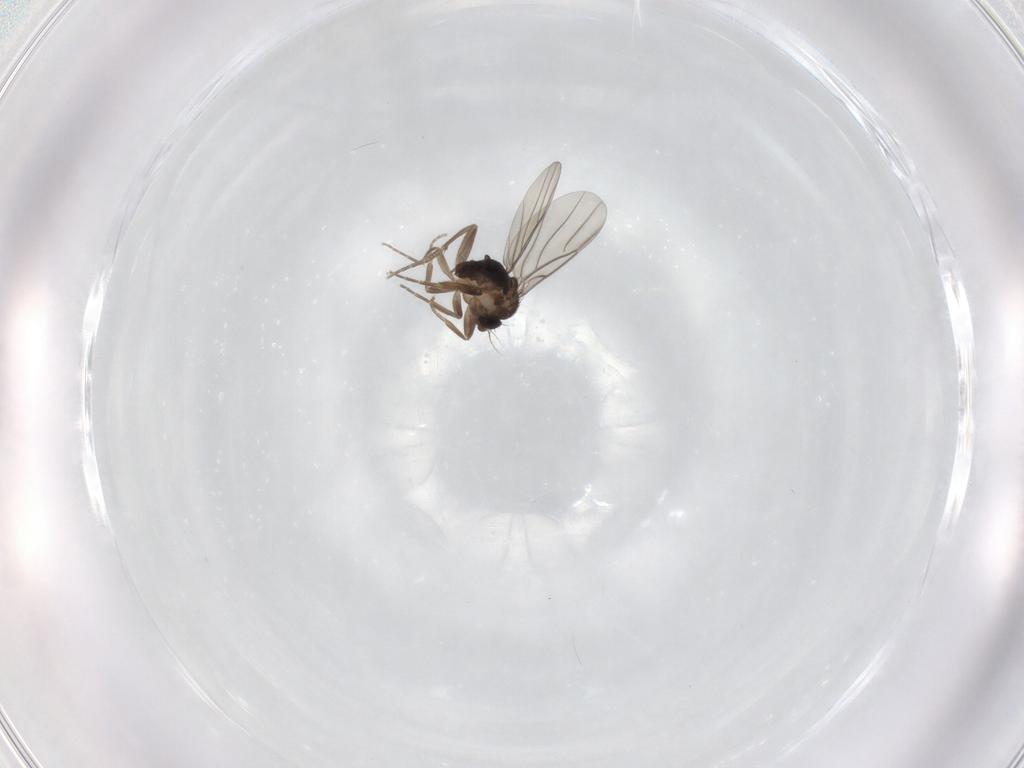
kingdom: Animalia
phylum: Arthropoda
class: Insecta
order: Diptera
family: Phoridae
